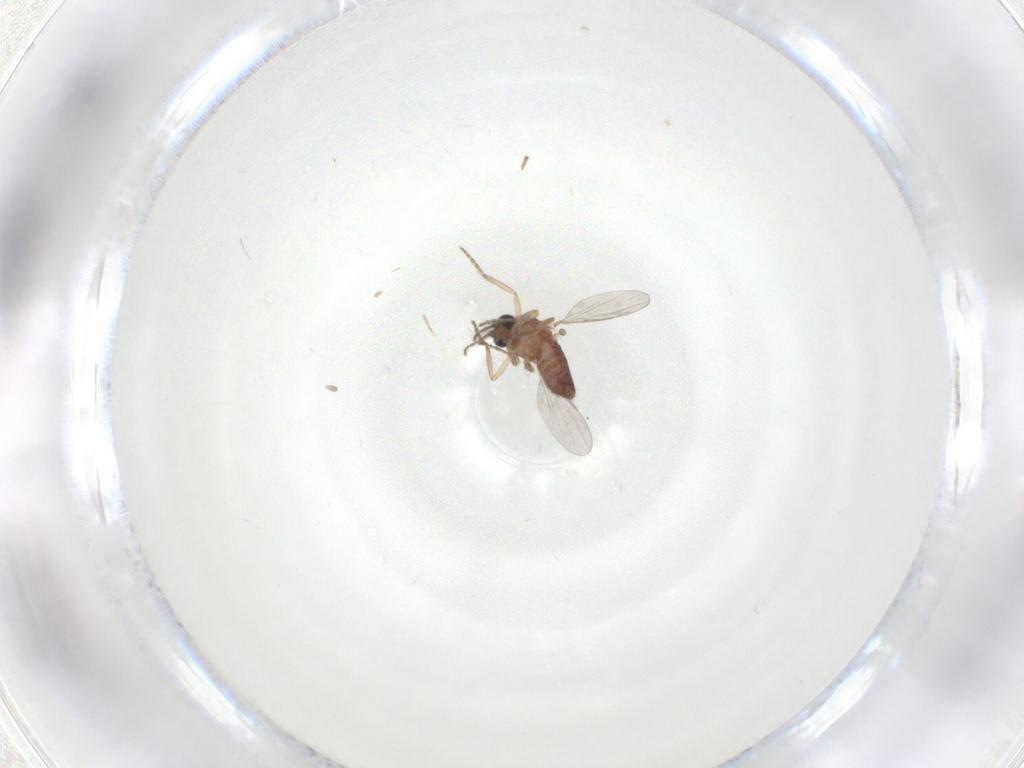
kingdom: Animalia
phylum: Arthropoda
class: Insecta
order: Diptera
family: Ceratopogonidae
